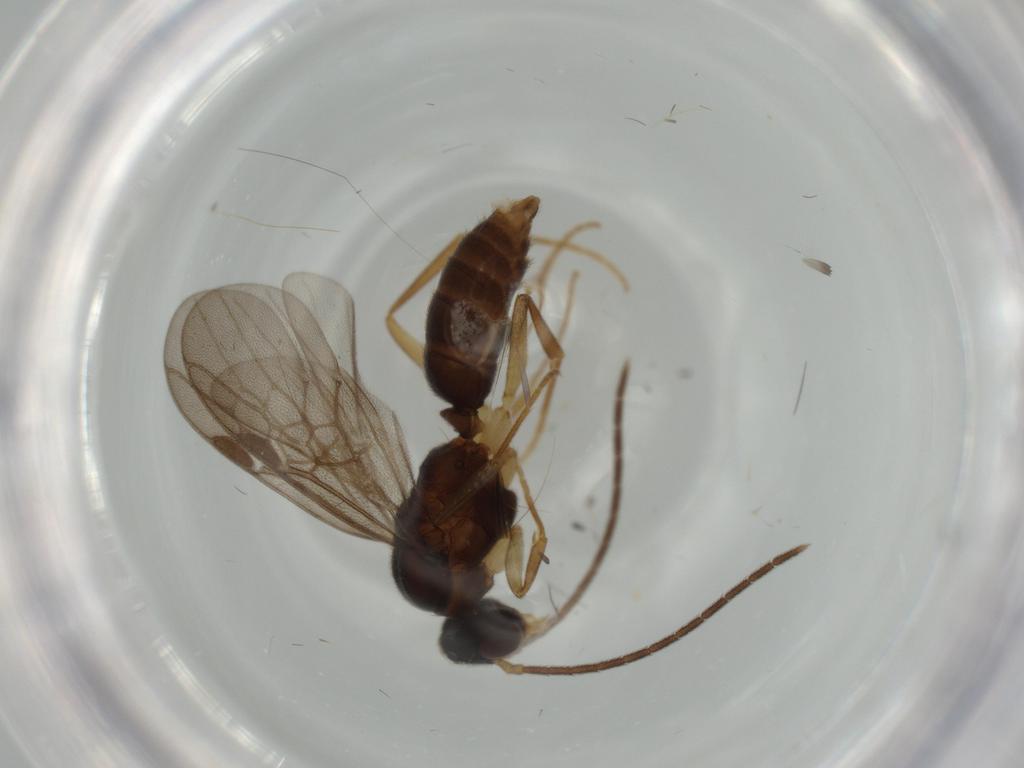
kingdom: Animalia
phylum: Arthropoda
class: Insecta
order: Hymenoptera
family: Formicidae
